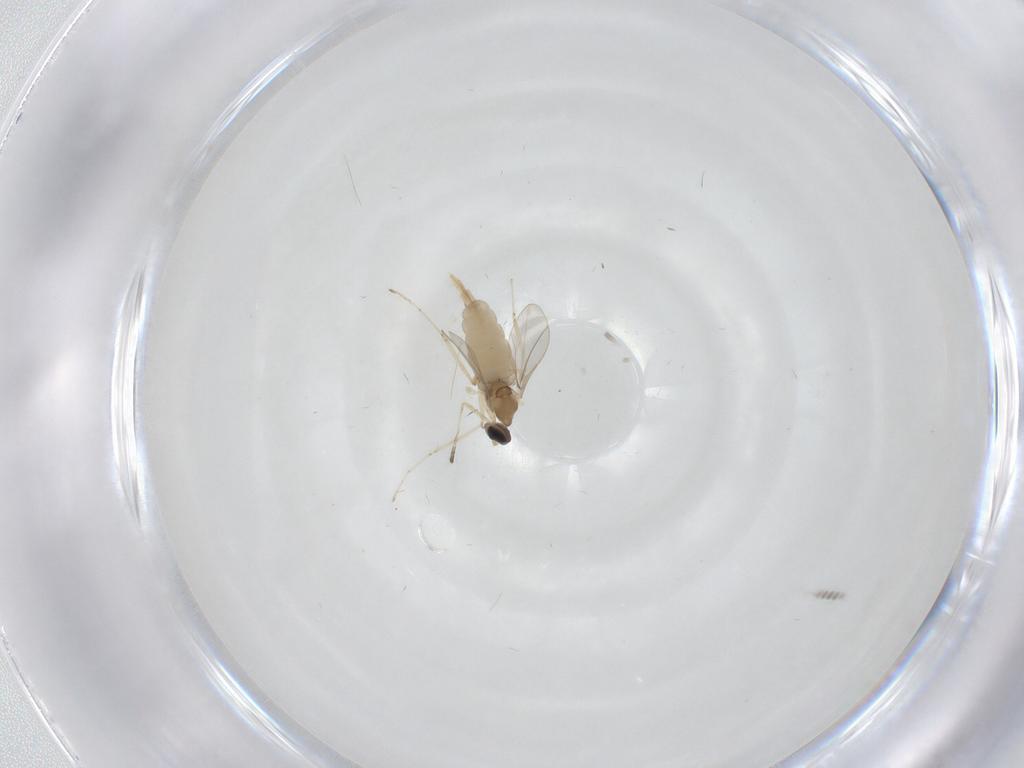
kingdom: Animalia
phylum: Arthropoda
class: Insecta
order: Diptera
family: Cecidomyiidae
